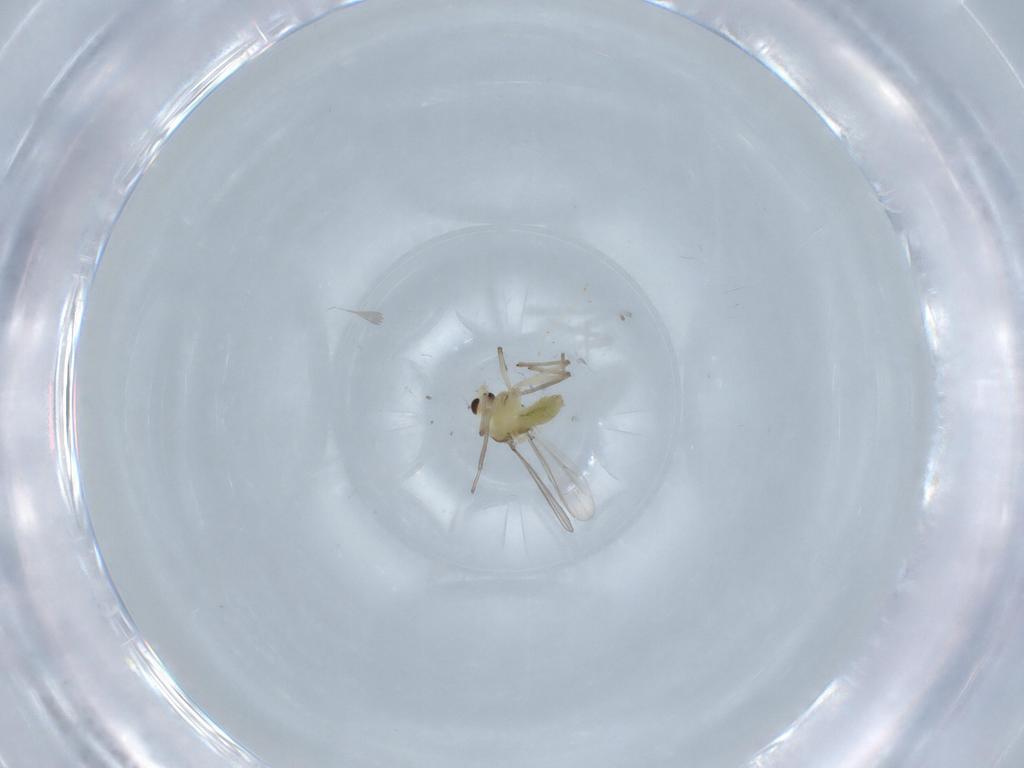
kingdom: Animalia
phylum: Arthropoda
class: Insecta
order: Diptera
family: Chironomidae
